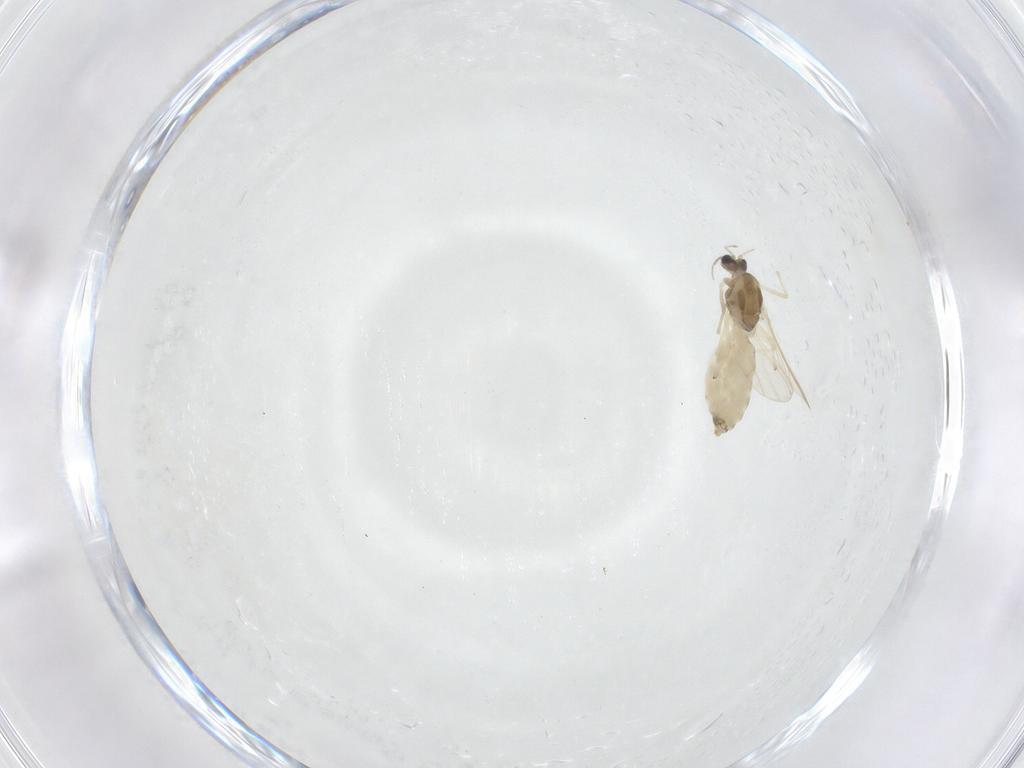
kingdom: Animalia
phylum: Arthropoda
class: Insecta
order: Diptera
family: Chironomidae
